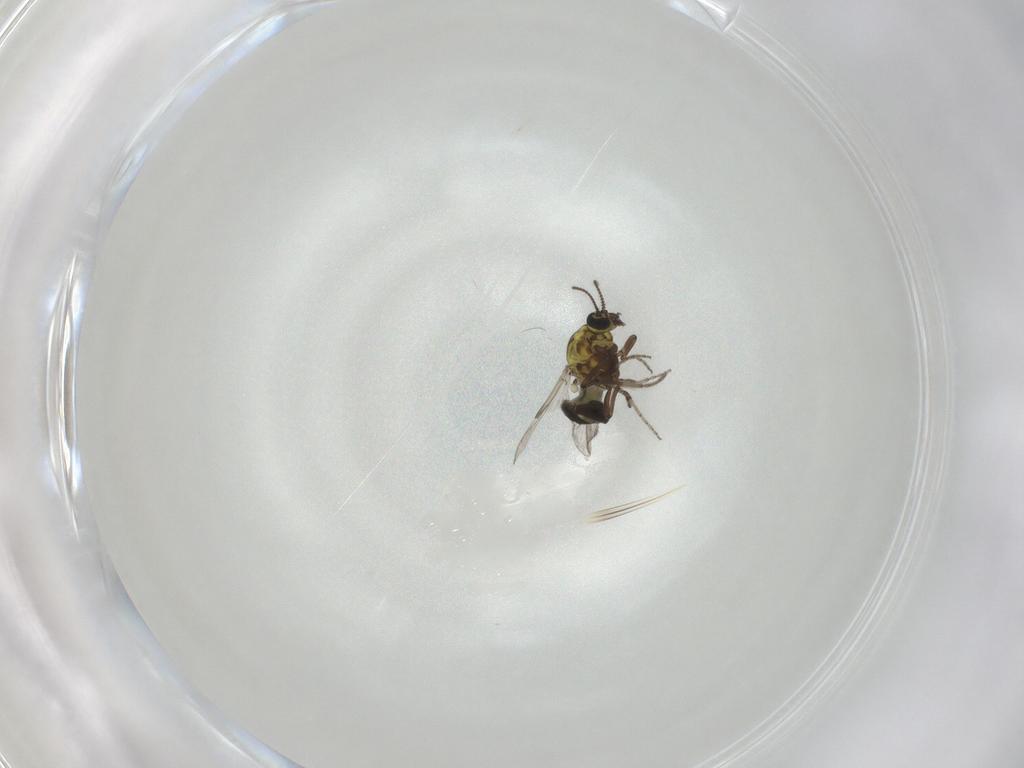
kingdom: Animalia
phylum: Arthropoda
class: Insecta
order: Diptera
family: Ceratopogonidae
